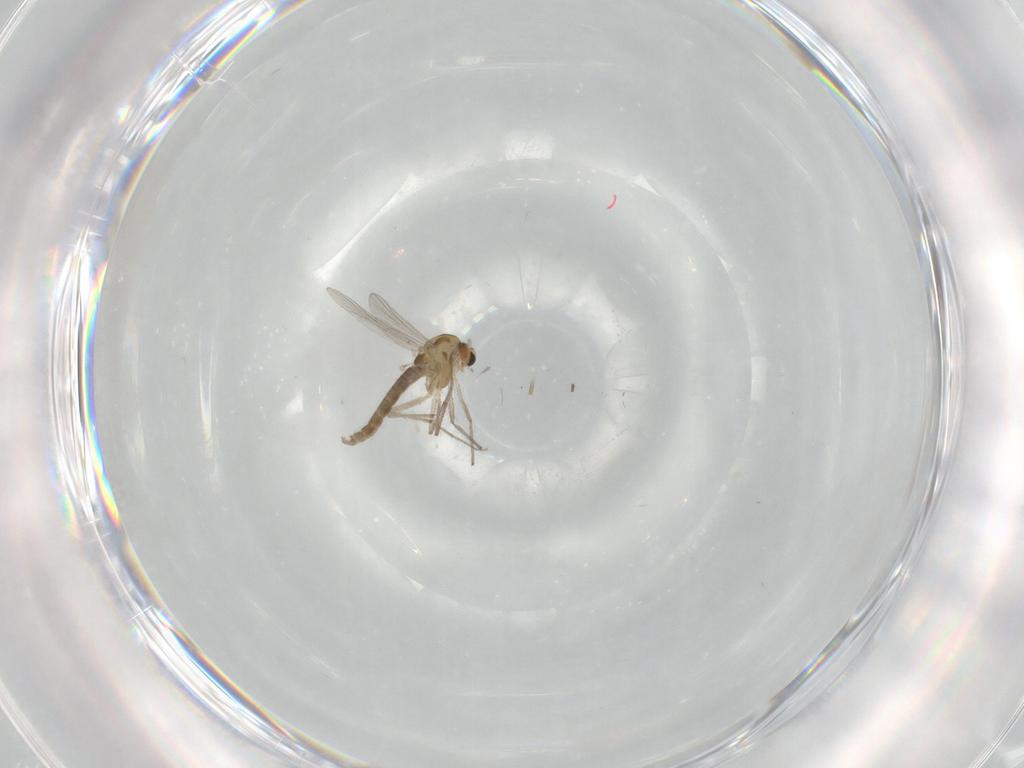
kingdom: Animalia
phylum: Arthropoda
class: Insecta
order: Diptera
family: Chironomidae
